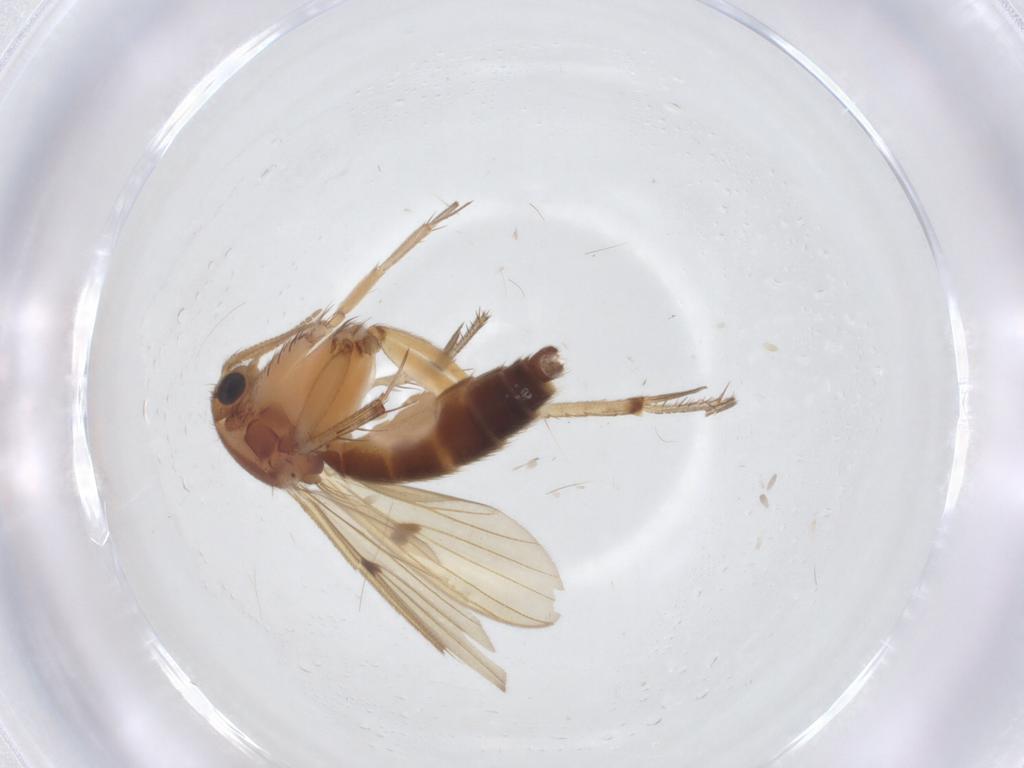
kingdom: Animalia
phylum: Arthropoda
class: Insecta
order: Diptera
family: Mycetophilidae
